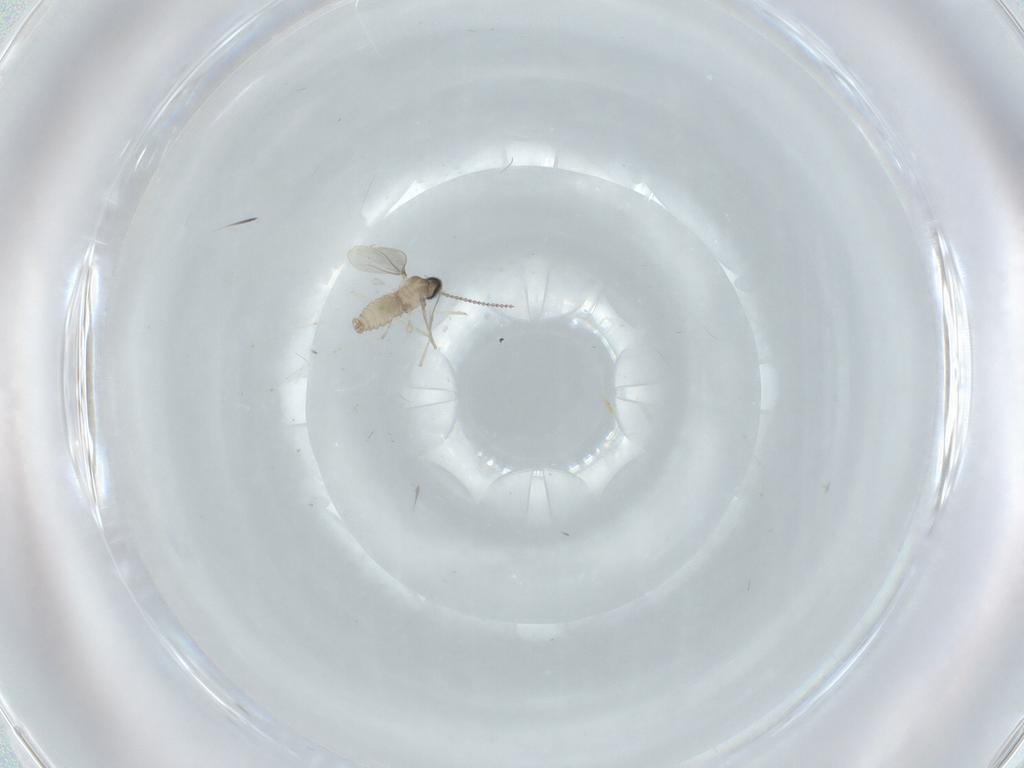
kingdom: Animalia
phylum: Arthropoda
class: Insecta
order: Diptera
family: Cecidomyiidae
